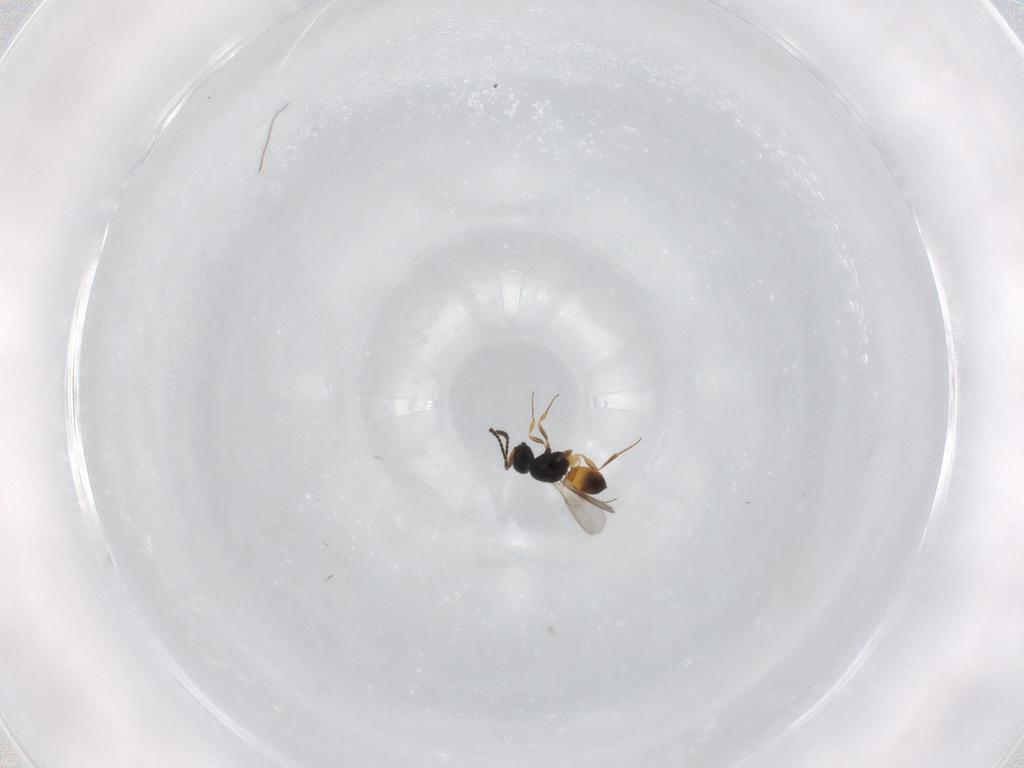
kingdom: Animalia
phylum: Arthropoda
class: Insecta
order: Hymenoptera
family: Scelionidae
